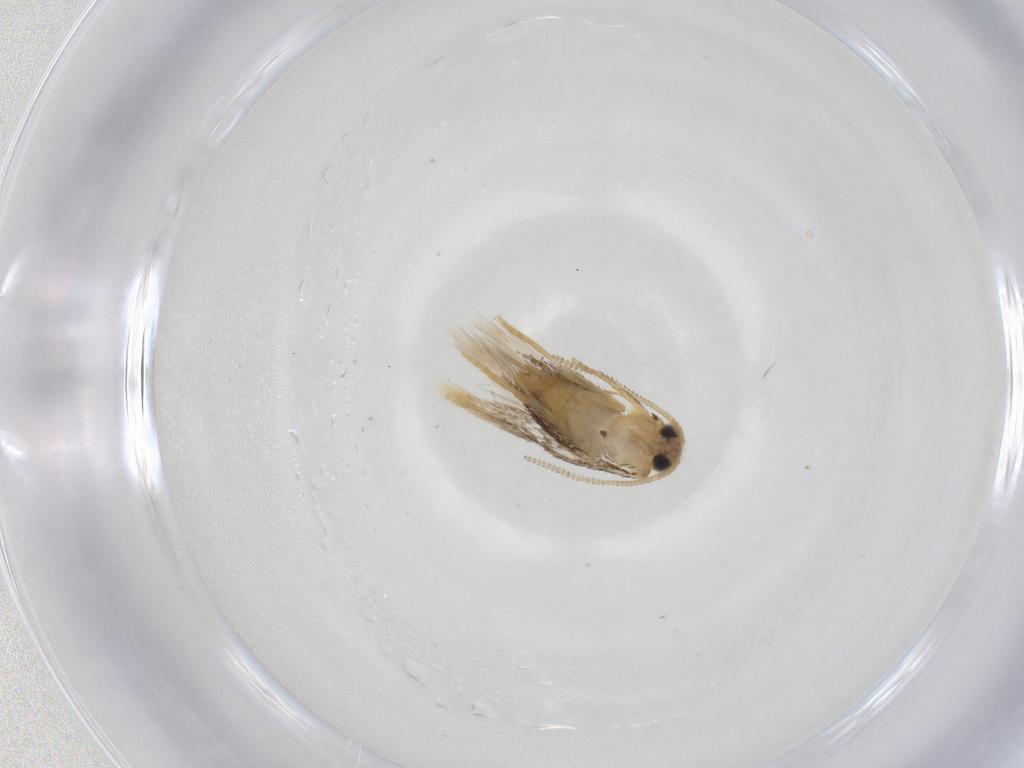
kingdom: Animalia
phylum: Arthropoda
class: Insecta
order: Lepidoptera
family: Nepticulidae
